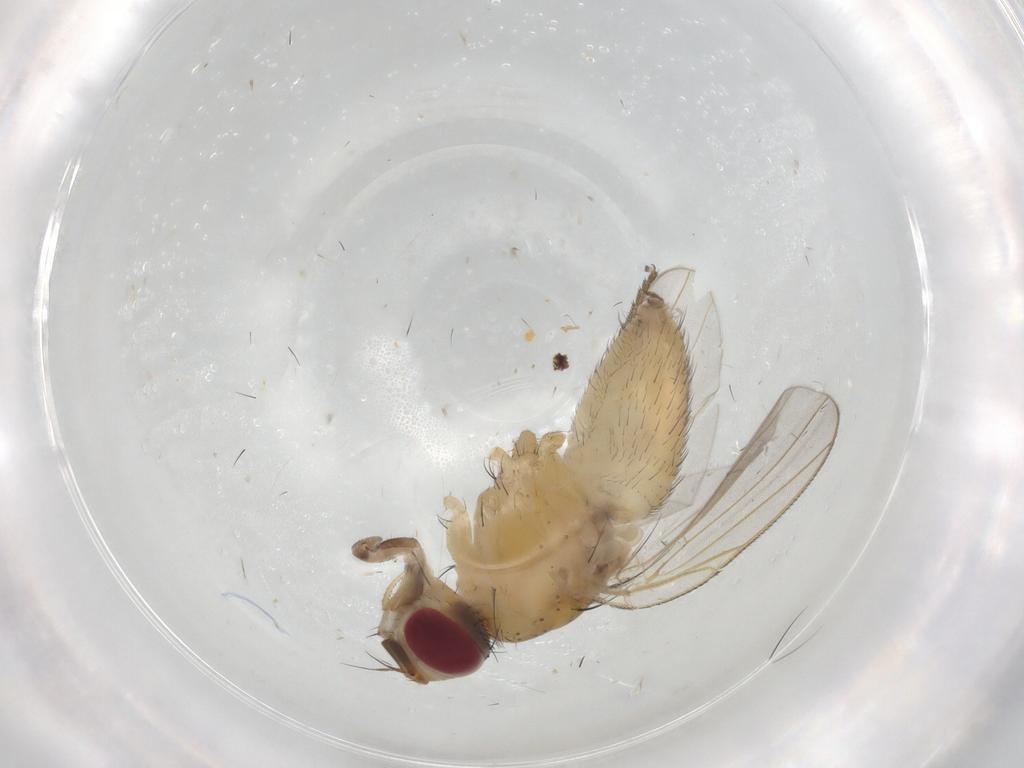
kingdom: Animalia
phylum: Arthropoda
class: Insecta
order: Diptera
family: Muscidae
